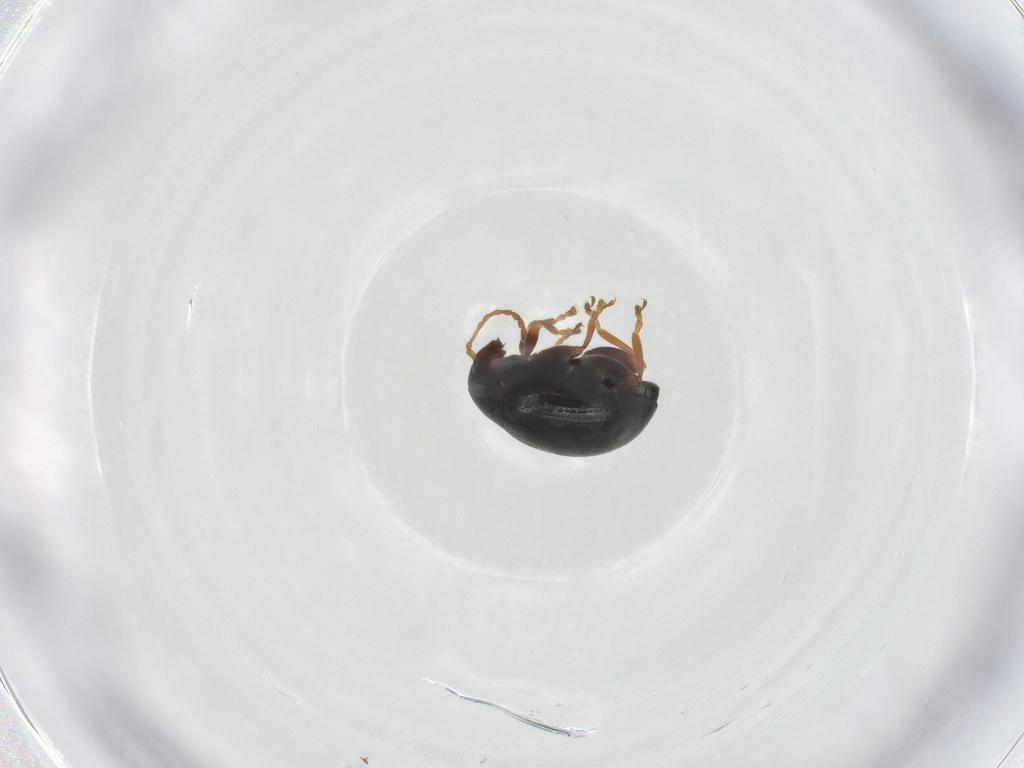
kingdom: Animalia
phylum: Arthropoda
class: Insecta
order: Coleoptera
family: Chrysomelidae
